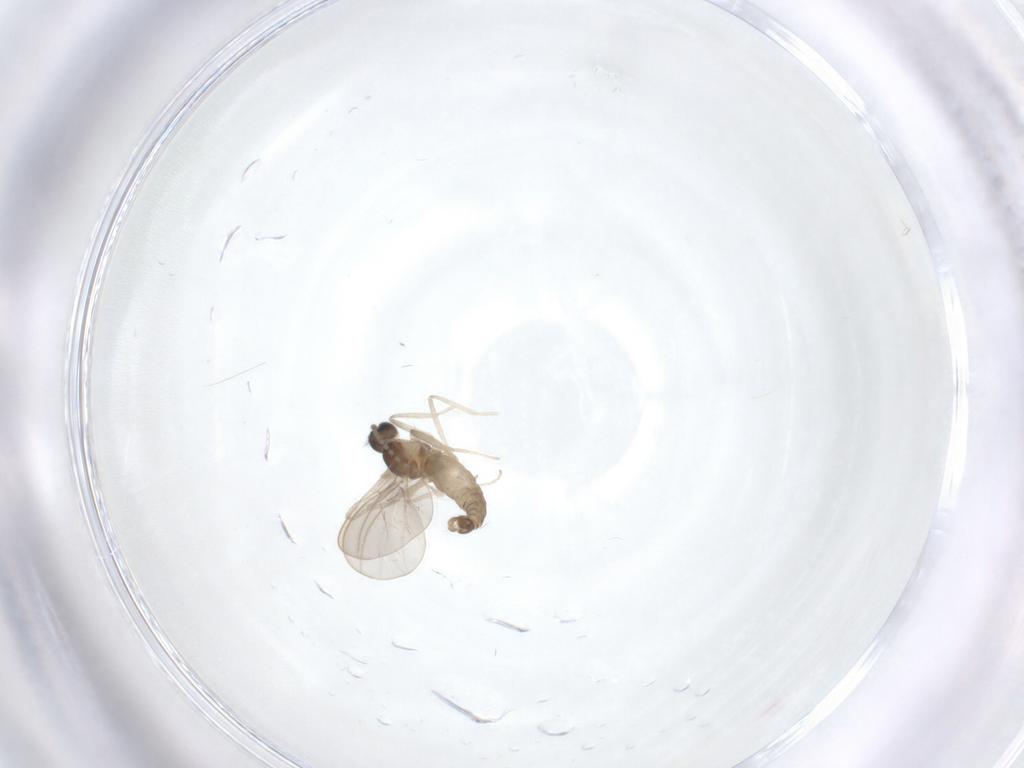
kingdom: Animalia
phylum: Arthropoda
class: Insecta
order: Diptera
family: Cecidomyiidae
